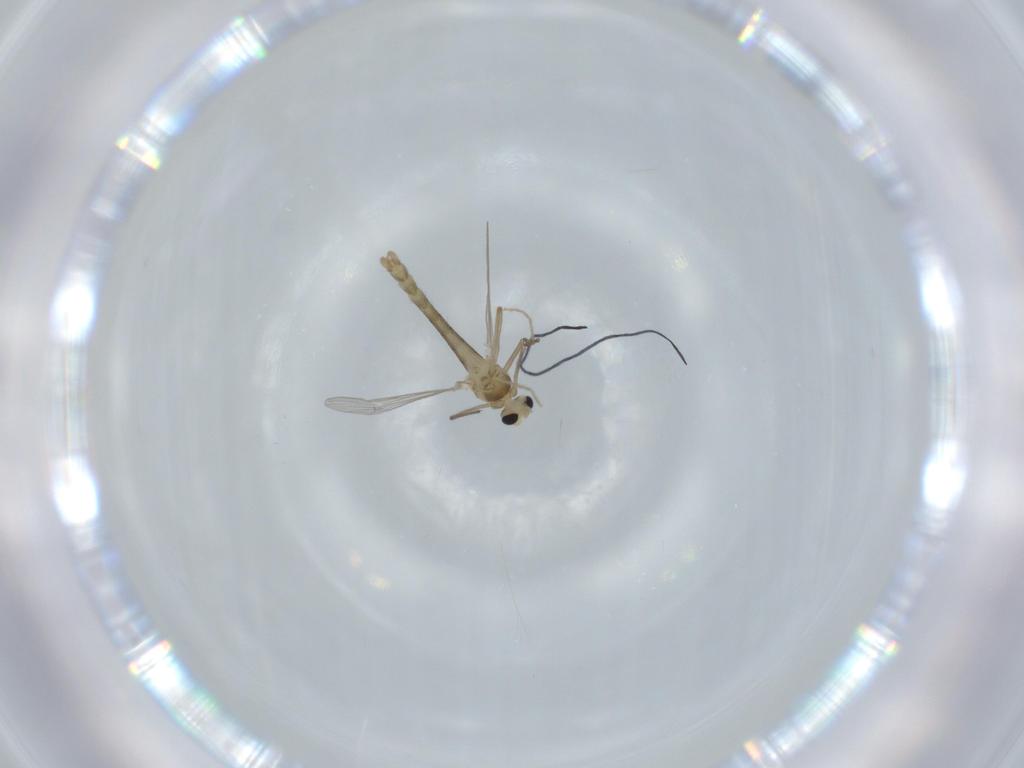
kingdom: Animalia
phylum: Arthropoda
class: Insecta
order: Diptera
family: Chironomidae
